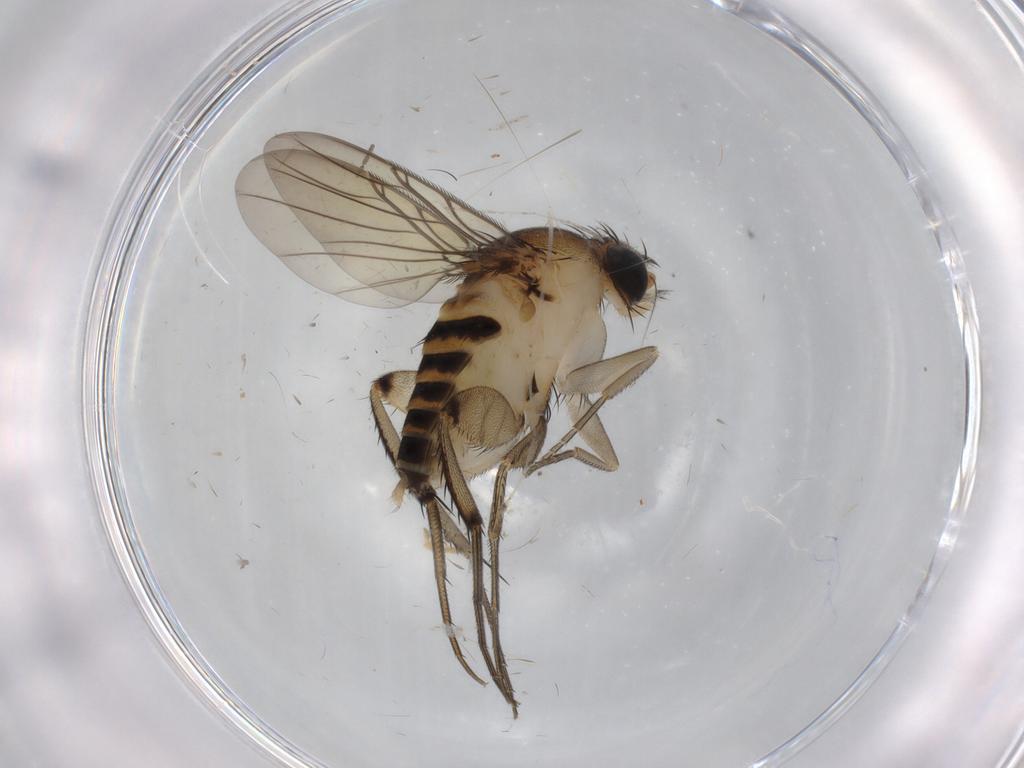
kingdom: Animalia
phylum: Arthropoda
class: Insecta
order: Diptera
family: Phoridae
